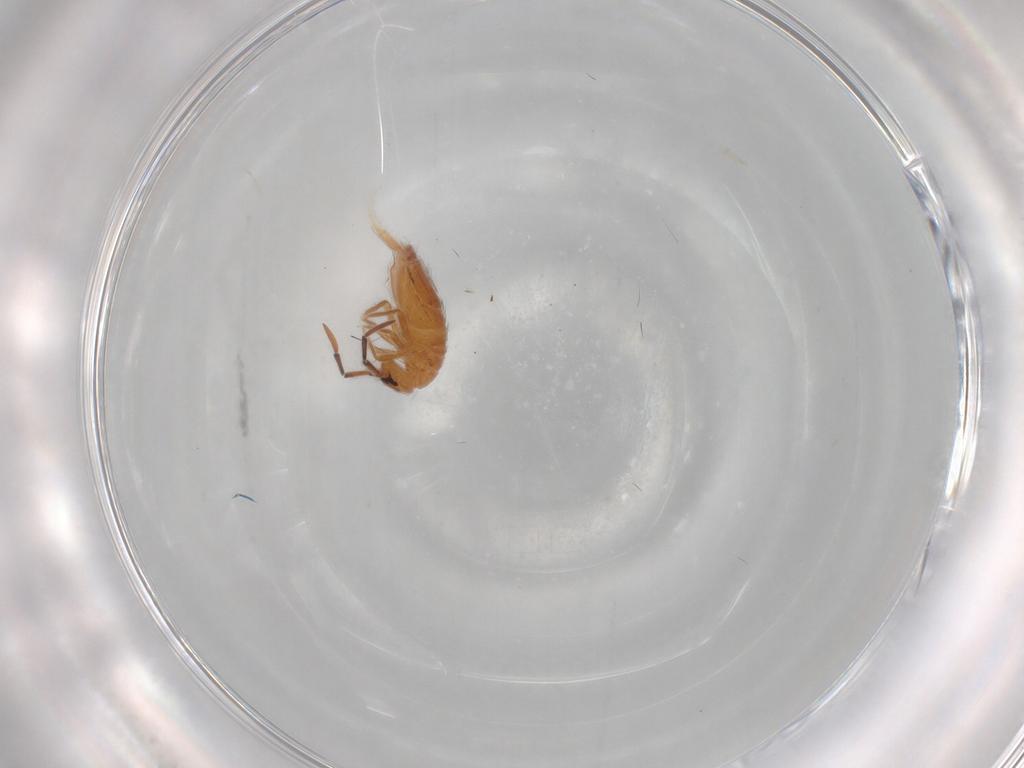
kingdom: Animalia
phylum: Arthropoda
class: Collembola
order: Entomobryomorpha
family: Entomobryidae
